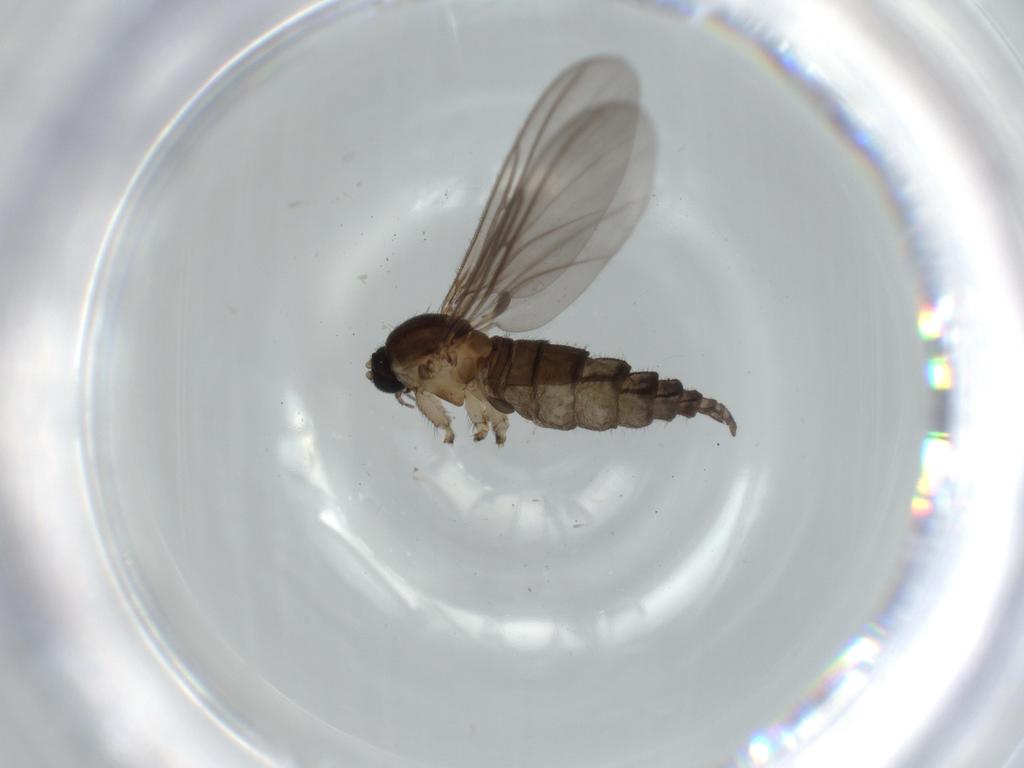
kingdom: Animalia
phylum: Arthropoda
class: Insecta
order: Diptera
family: Sciaridae
